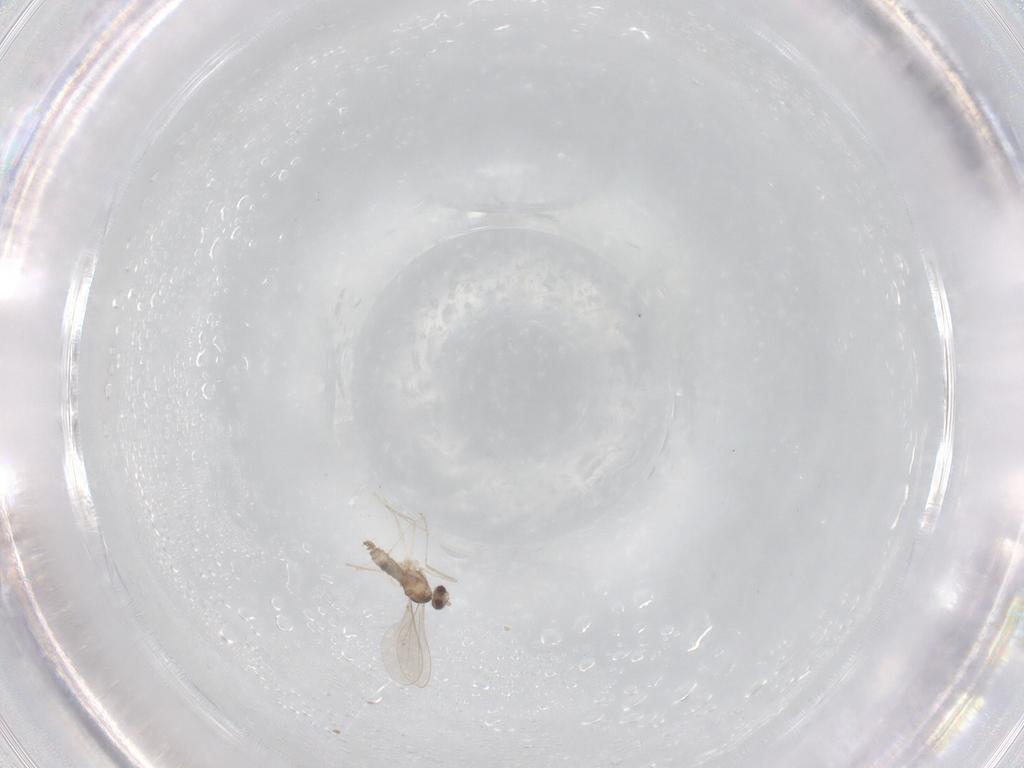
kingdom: Animalia
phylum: Arthropoda
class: Insecta
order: Diptera
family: Cecidomyiidae
